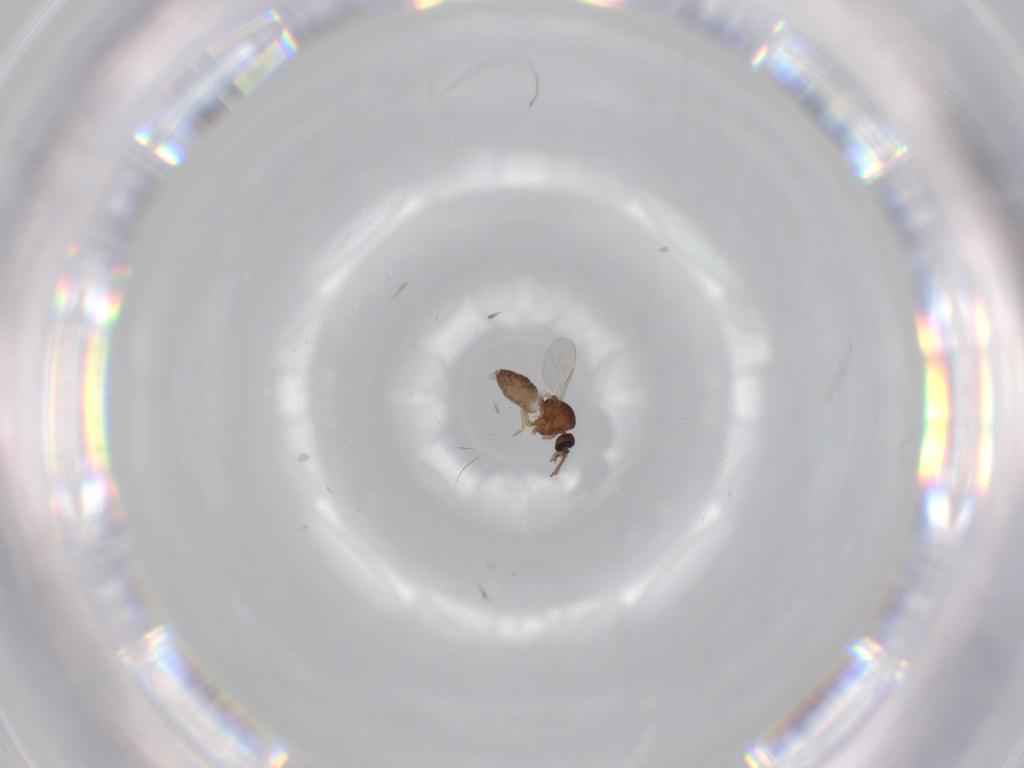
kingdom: Animalia
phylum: Arthropoda
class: Insecta
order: Diptera
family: Ceratopogonidae
